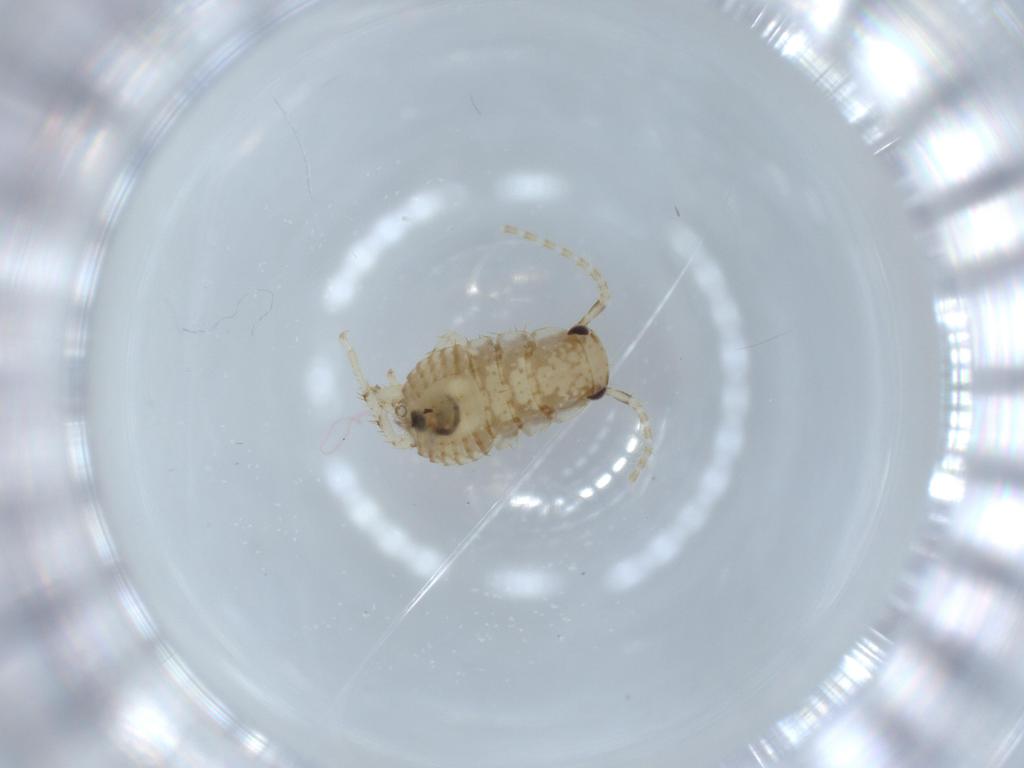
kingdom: Animalia
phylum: Arthropoda
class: Insecta
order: Blattodea
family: Ectobiidae
